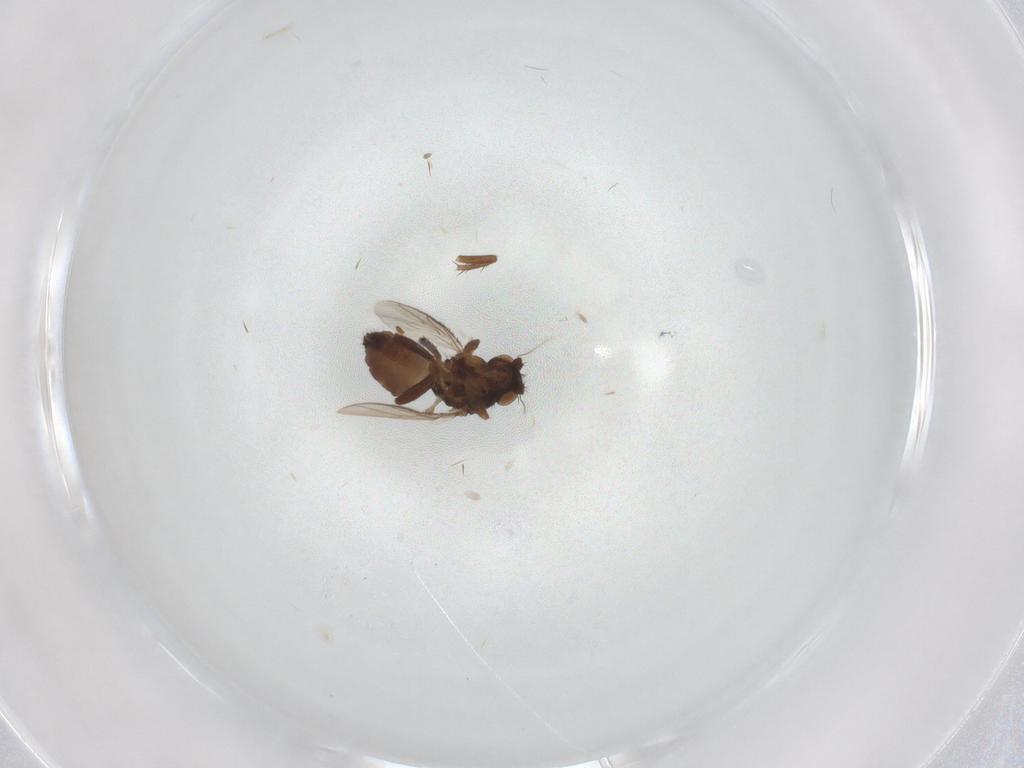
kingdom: Animalia
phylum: Arthropoda
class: Insecta
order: Diptera
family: Sphaeroceridae
